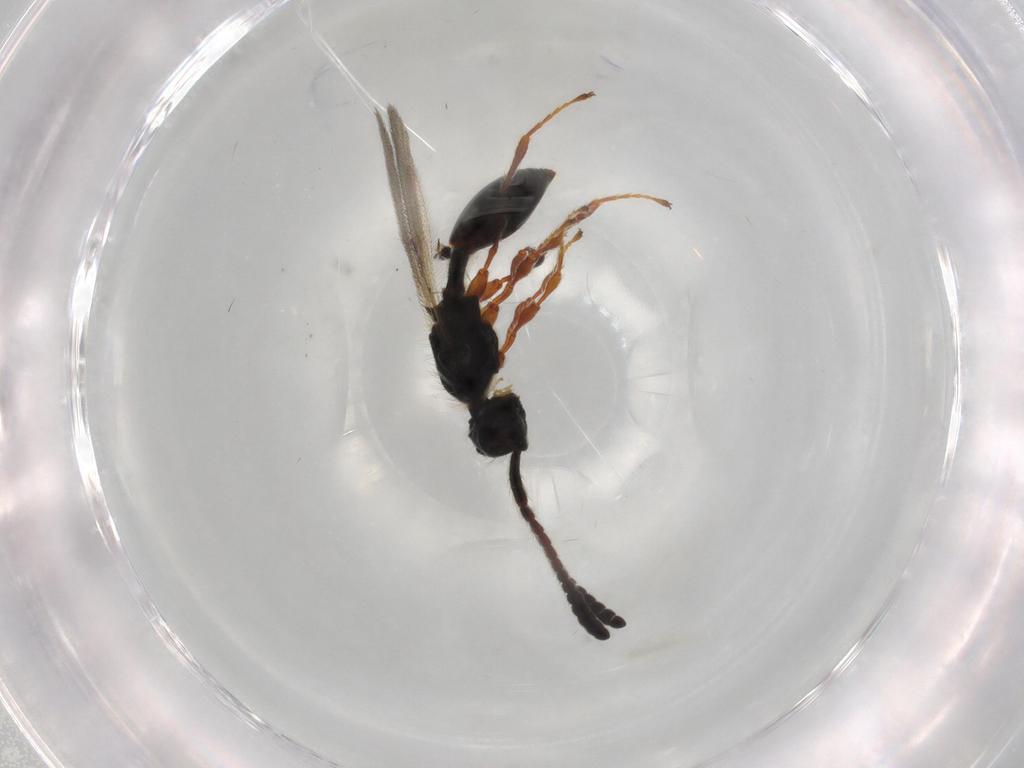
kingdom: Animalia
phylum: Arthropoda
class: Insecta
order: Hymenoptera
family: Diapriidae
